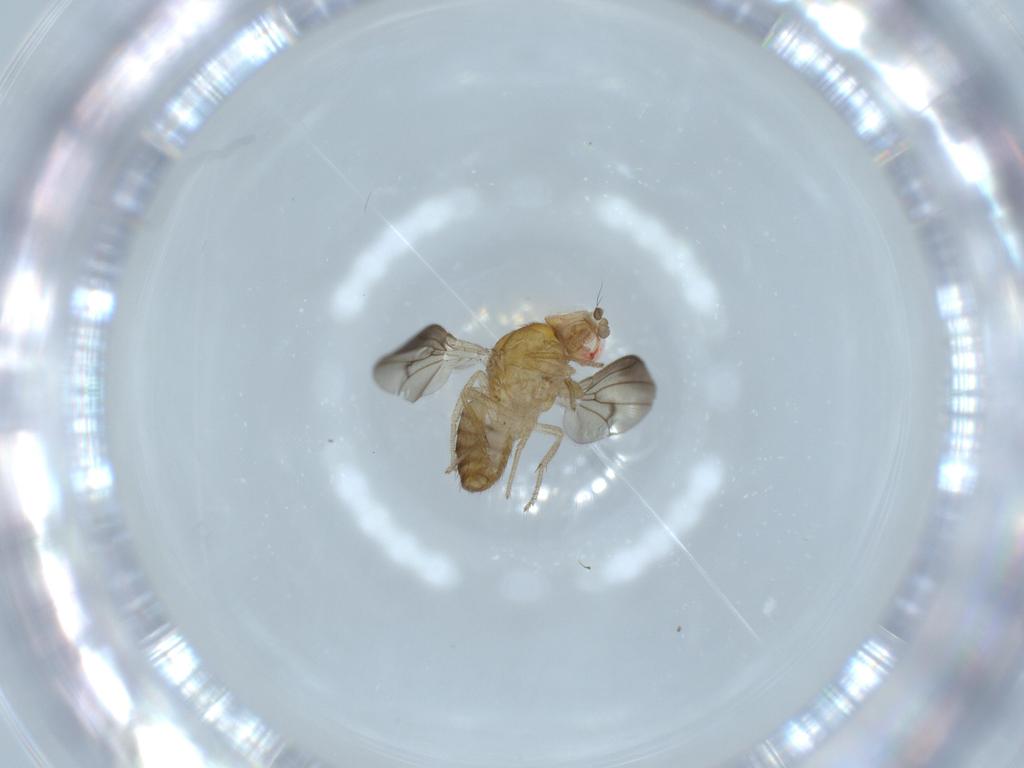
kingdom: Animalia
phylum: Arthropoda
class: Insecta
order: Diptera
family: Drosophilidae
